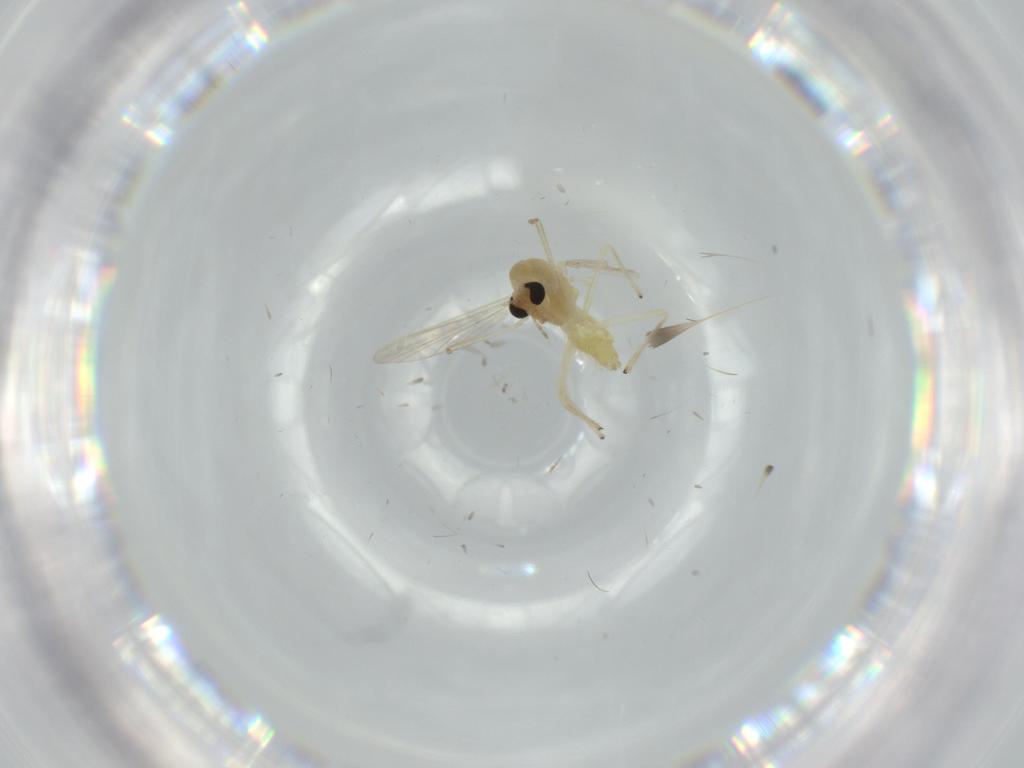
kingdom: Animalia
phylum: Arthropoda
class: Insecta
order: Diptera
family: Chironomidae
